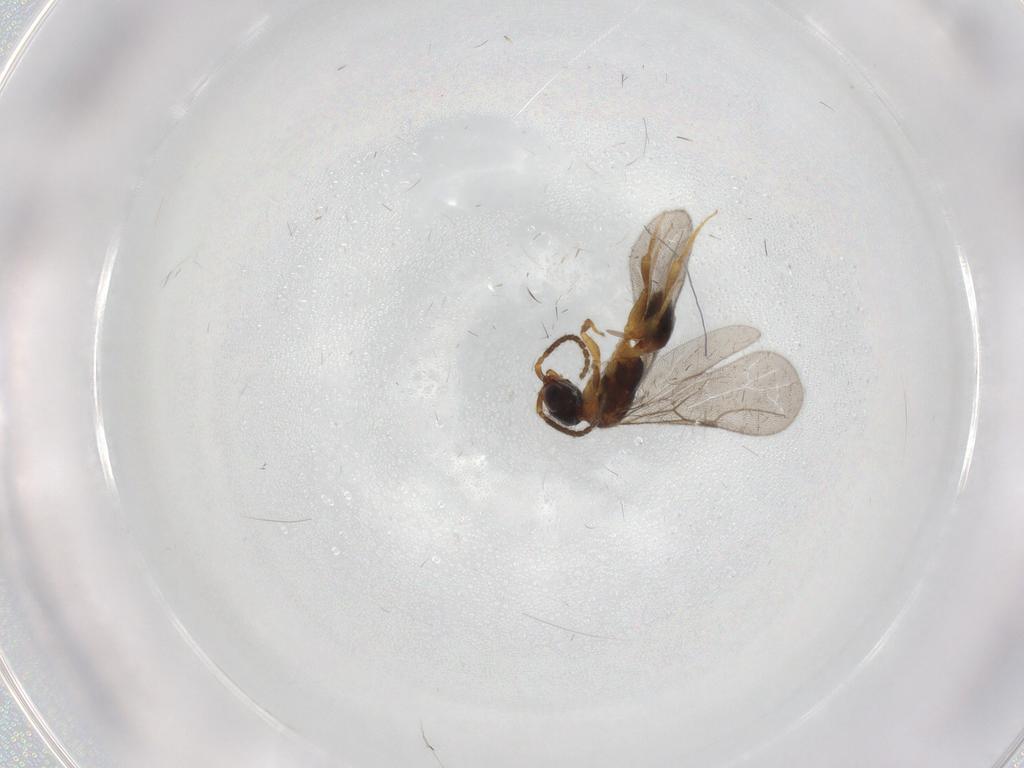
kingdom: Animalia
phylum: Arthropoda
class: Insecta
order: Hymenoptera
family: Bethylidae
